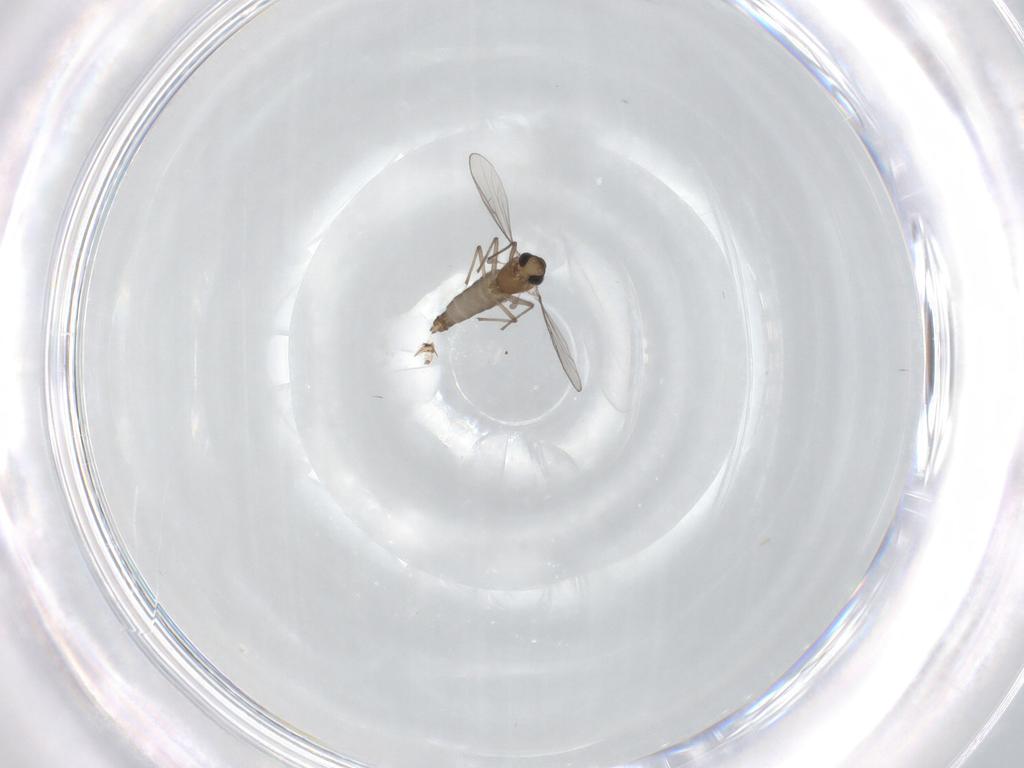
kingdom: Animalia
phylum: Arthropoda
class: Insecta
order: Diptera
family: Chironomidae
